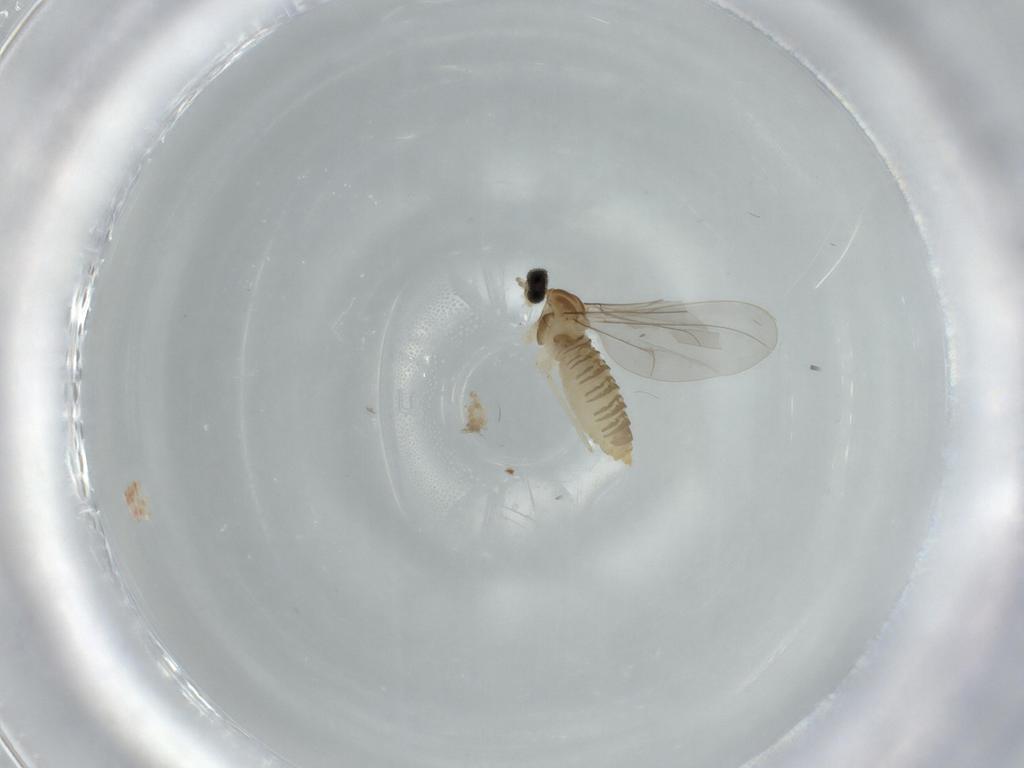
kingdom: Animalia
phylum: Arthropoda
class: Insecta
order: Diptera
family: Cecidomyiidae
